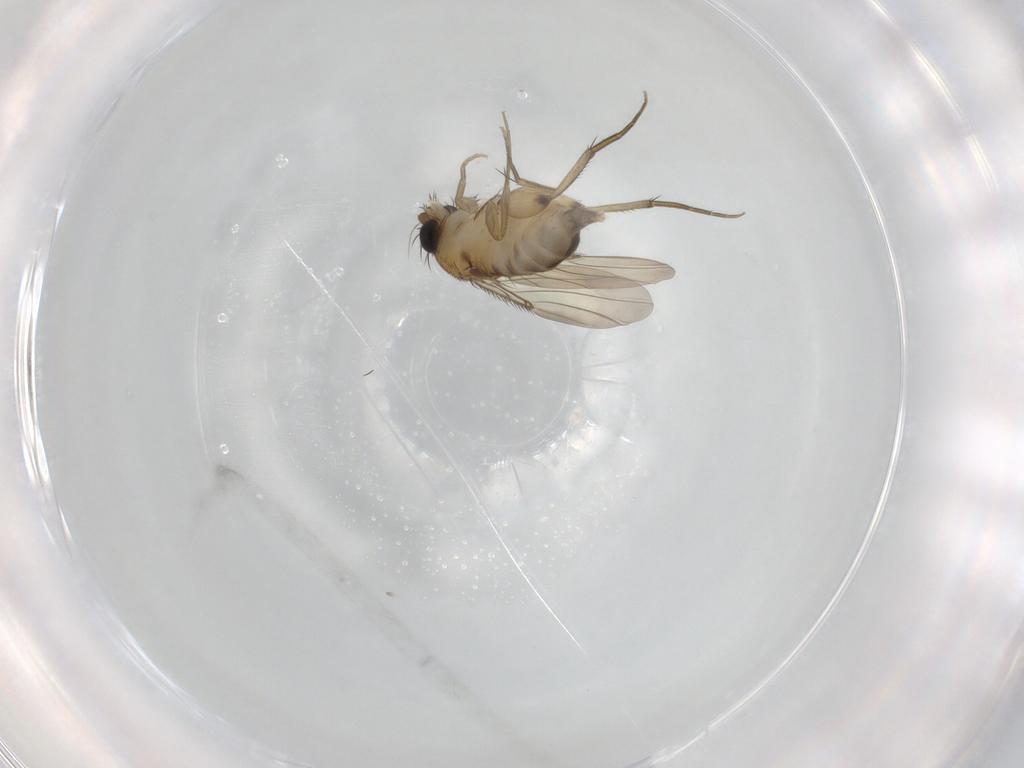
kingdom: Animalia
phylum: Arthropoda
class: Insecta
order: Diptera
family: Phoridae
